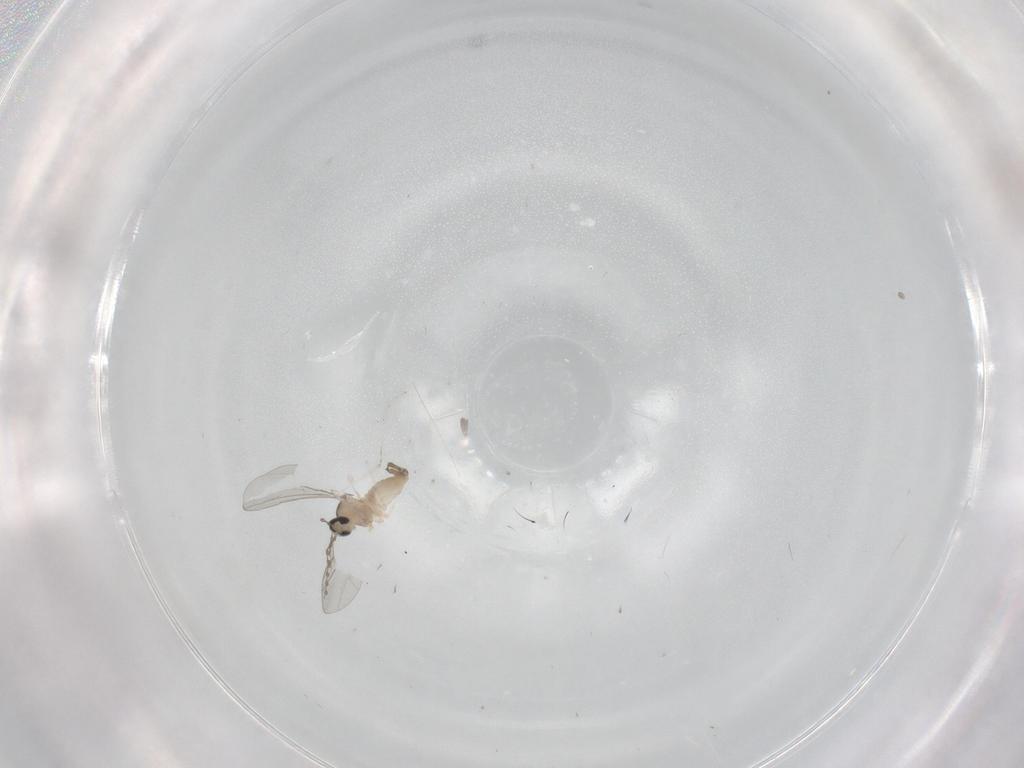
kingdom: Animalia
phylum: Arthropoda
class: Insecta
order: Diptera
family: Cecidomyiidae
